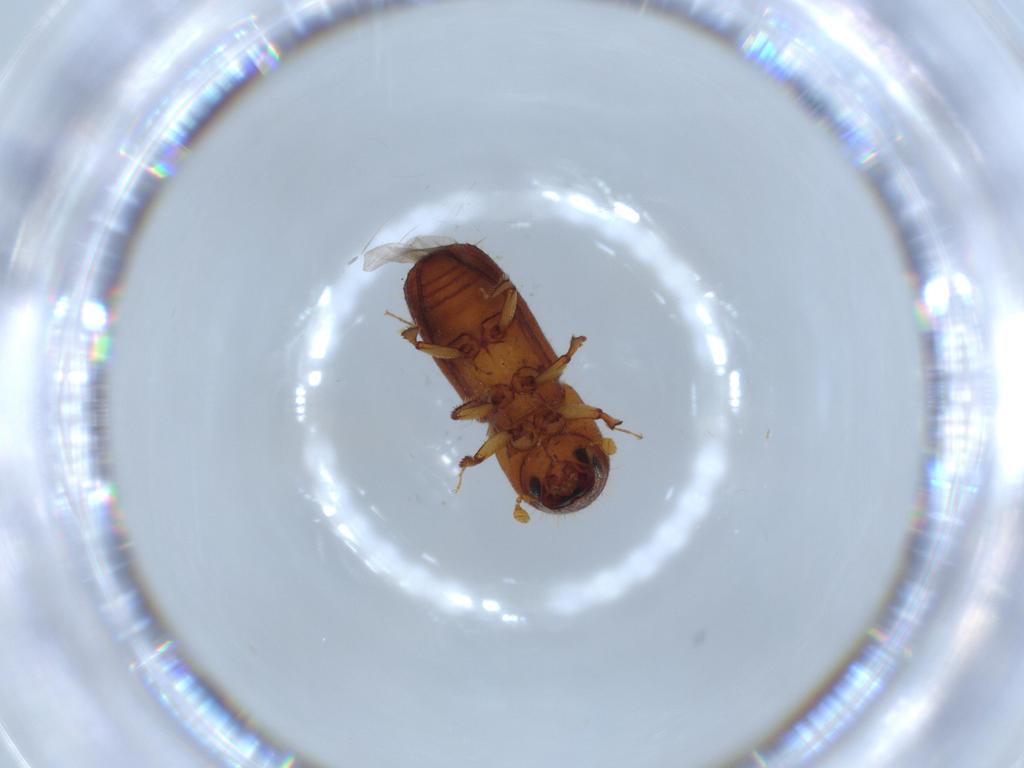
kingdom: Animalia
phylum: Arthropoda
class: Insecta
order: Coleoptera
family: Curculionidae
